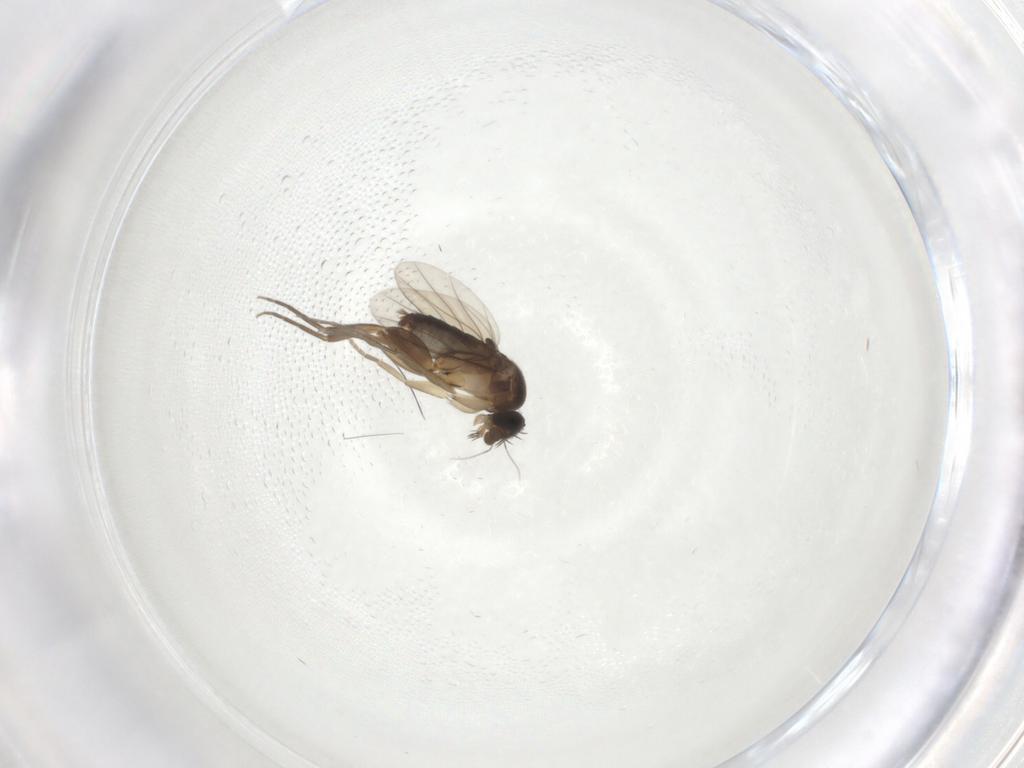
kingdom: Animalia
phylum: Arthropoda
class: Insecta
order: Diptera
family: Phoridae
